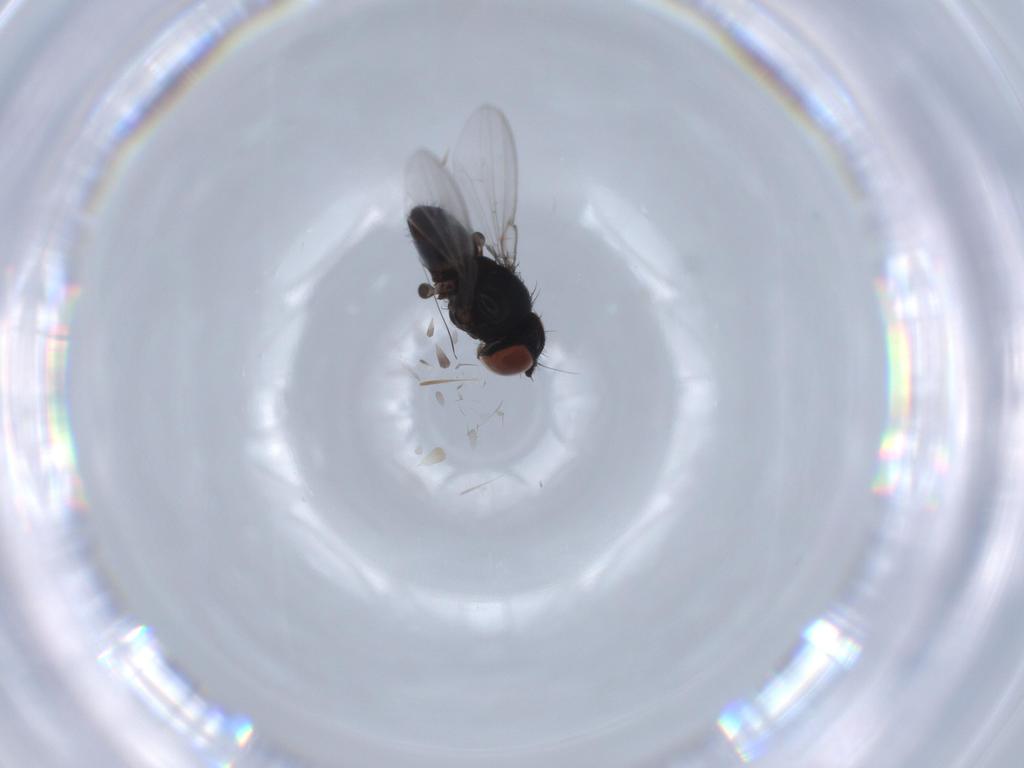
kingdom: Animalia
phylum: Arthropoda
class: Insecta
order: Diptera
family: Milichiidae
